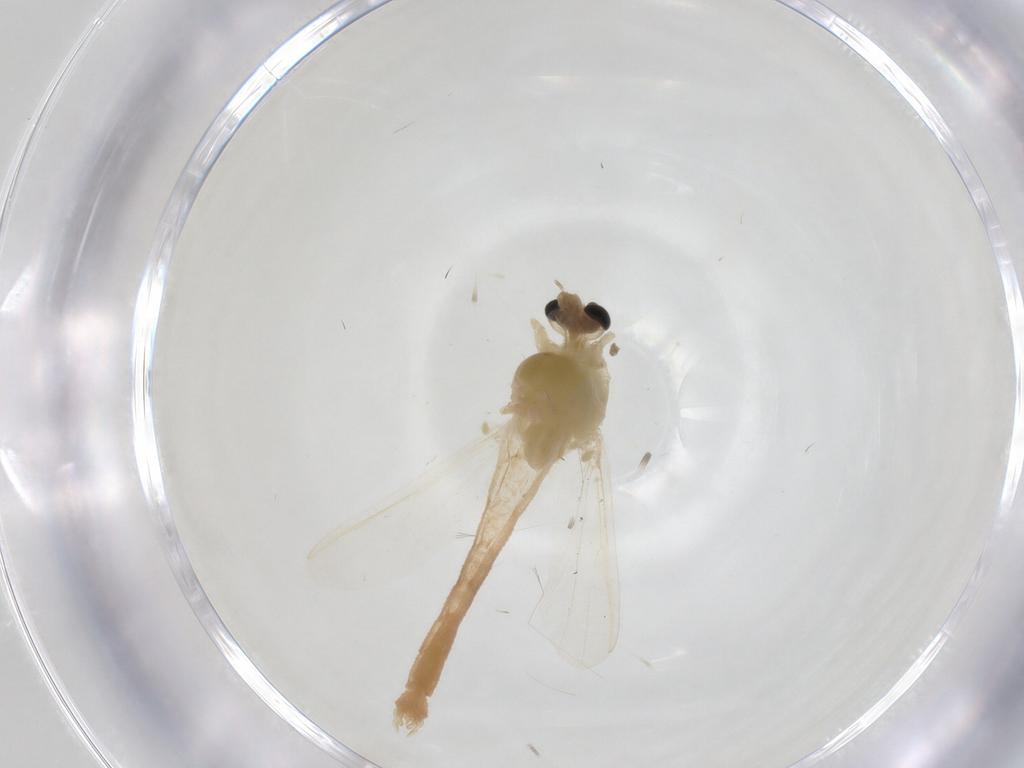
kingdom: Animalia
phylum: Arthropoda
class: Insecta
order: Diptera
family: Chironomidae
